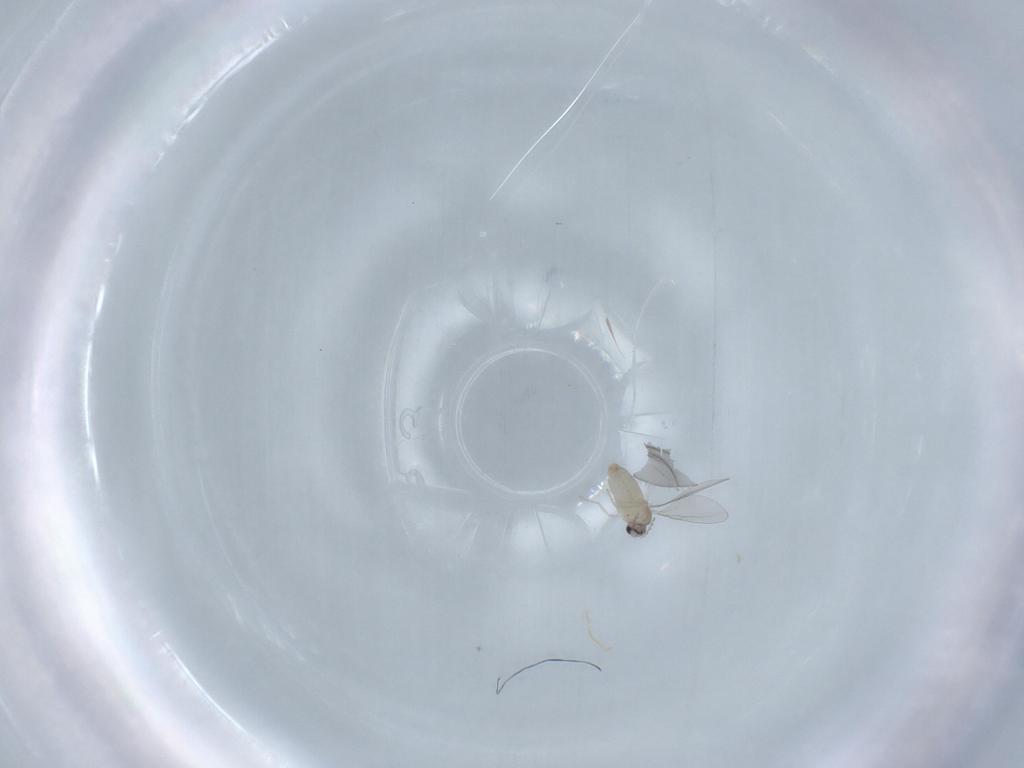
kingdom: Animalia
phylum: Arthropoda
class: Insecta
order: Diptera
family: Cecidomyiidae
